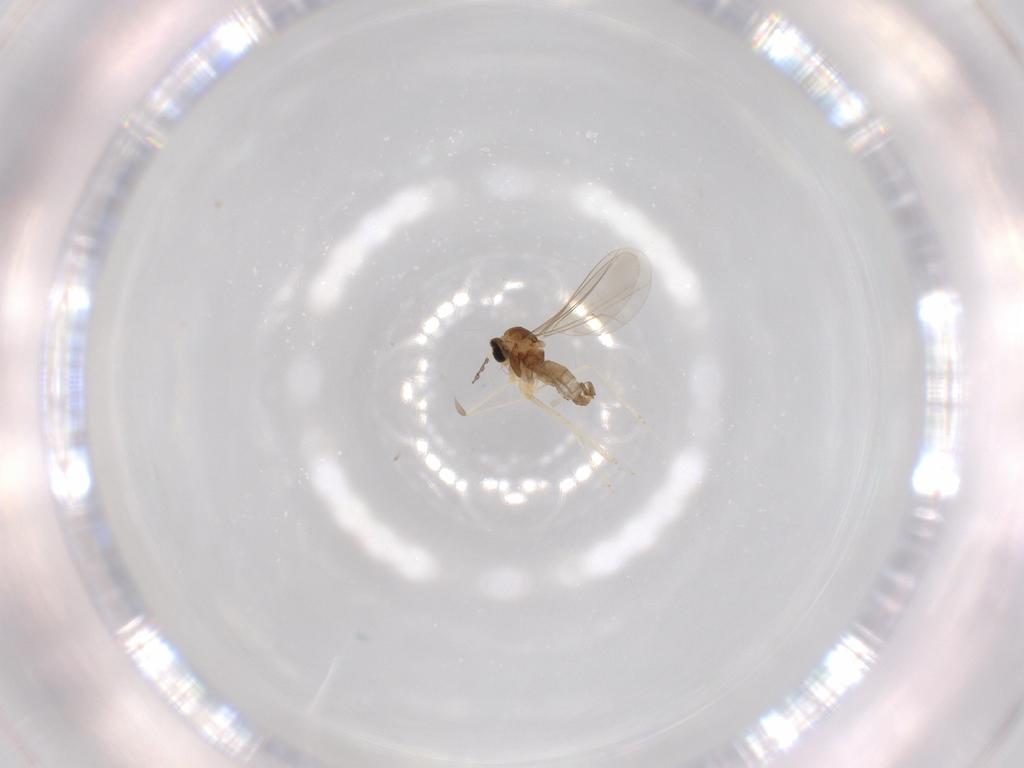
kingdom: Animalia
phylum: Arthropoda
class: Insecta
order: Diptera
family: Cecidomyiidae
